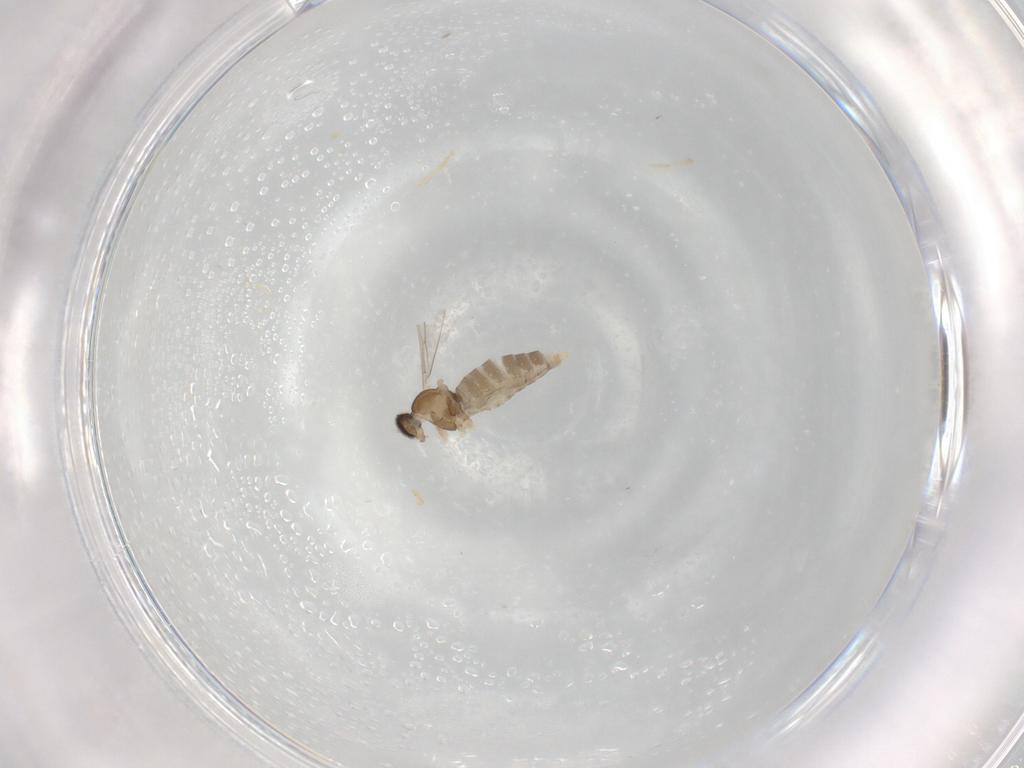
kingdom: Animalia
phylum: Arthropoda
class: Insecta
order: Diptera
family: Cecidomyiidae
